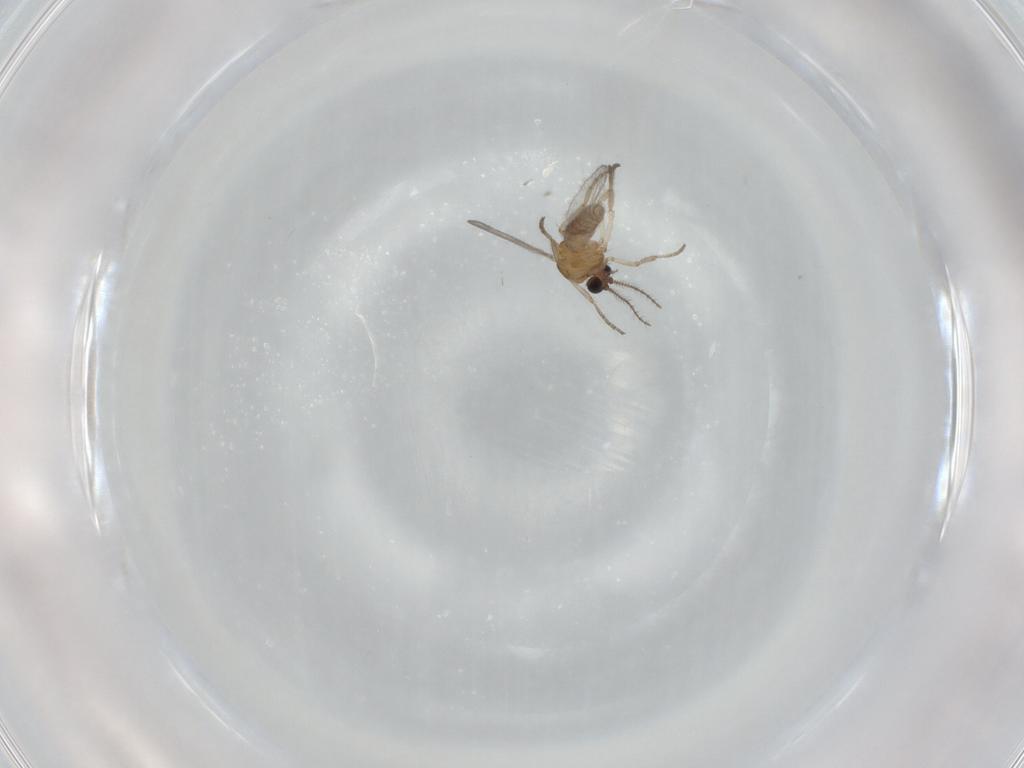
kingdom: Animalia
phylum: Arthropoda
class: Insecta
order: Diptera
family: Ceratopogonidae
